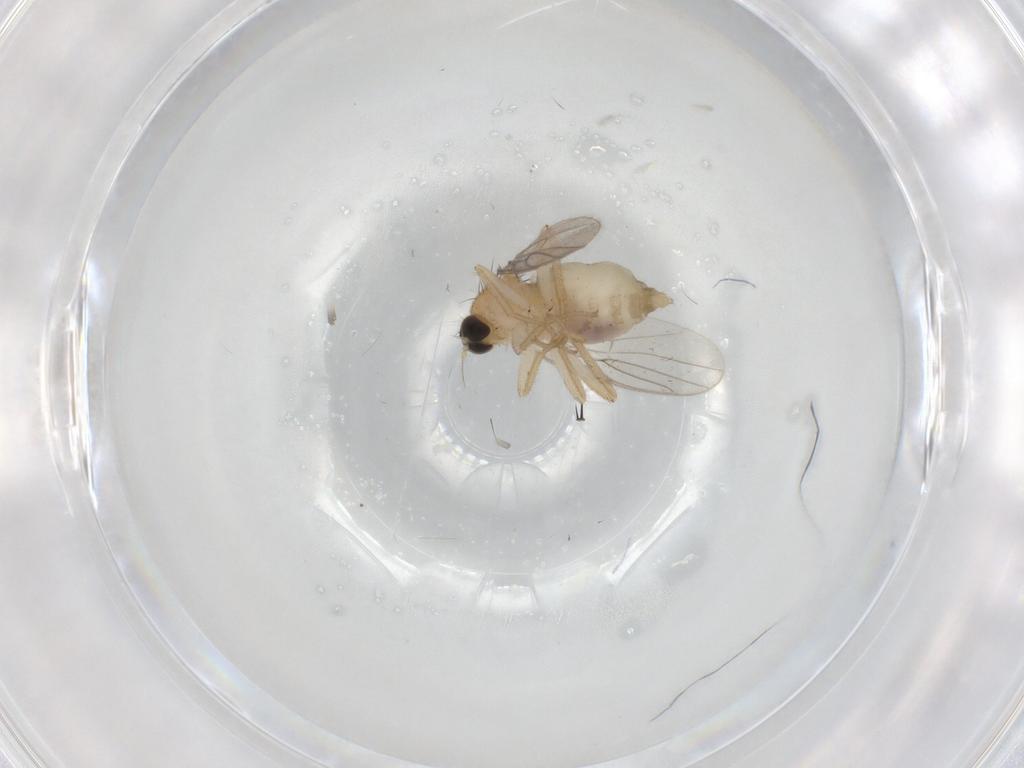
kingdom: Animalia
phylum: Arthropoda
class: Insecta
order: Diptera
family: Hybotidae
